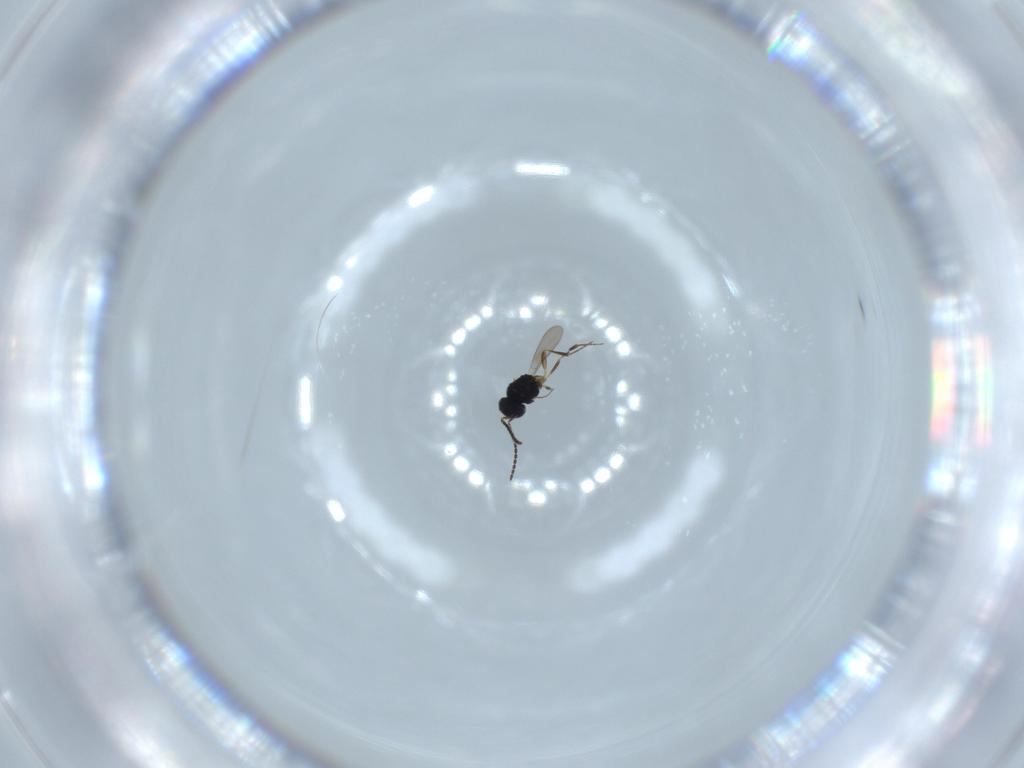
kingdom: Animalia
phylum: Arthropoda
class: Insecta
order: Hymenoptera
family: Scelionidae
